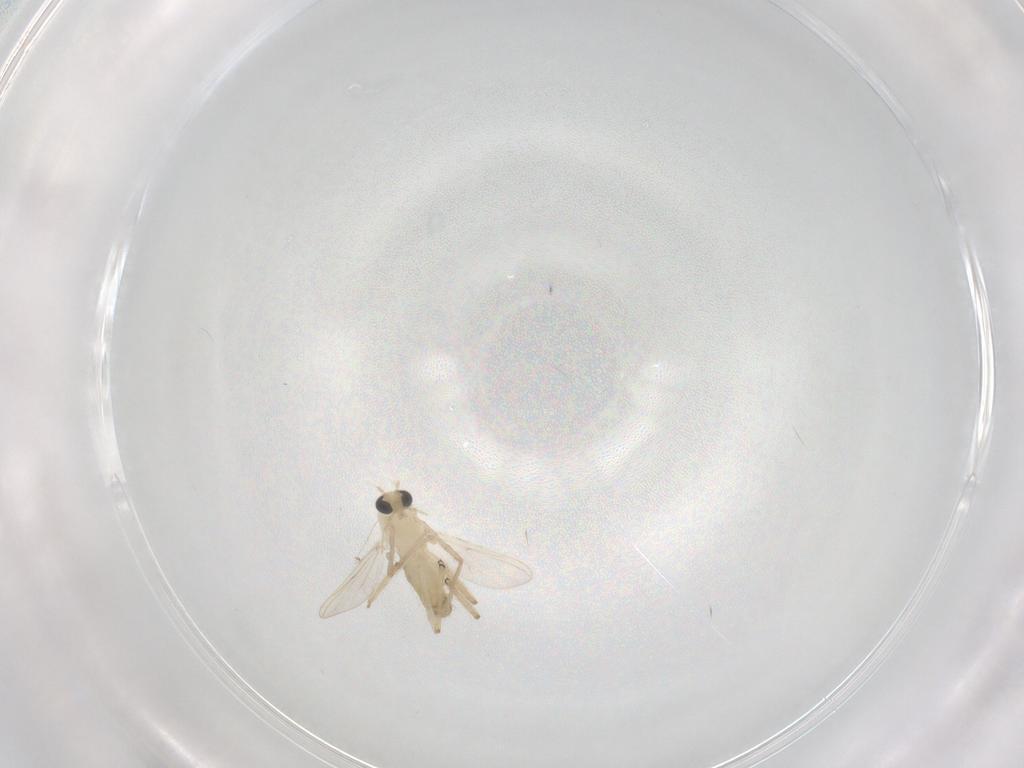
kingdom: Animalia
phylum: Arthropoda
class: Insecta
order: Diptera
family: Chironomidae
